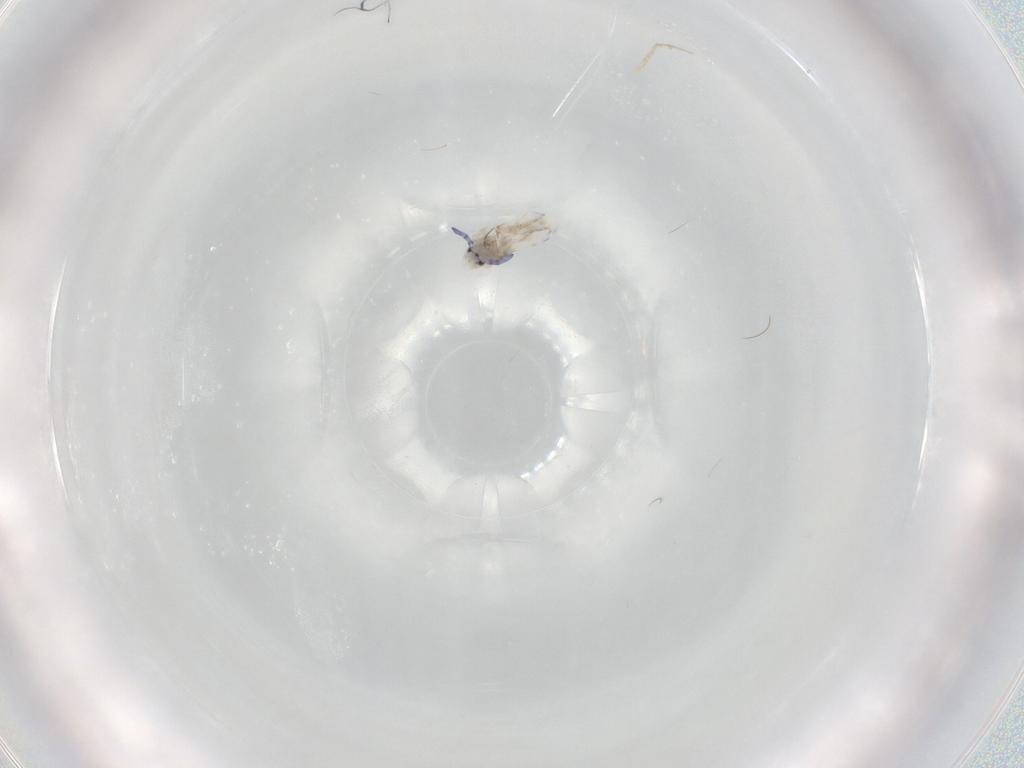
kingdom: Animalia
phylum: Arthropoda
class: Collembola
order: Entomobryomorpha
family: Entomobryidae
